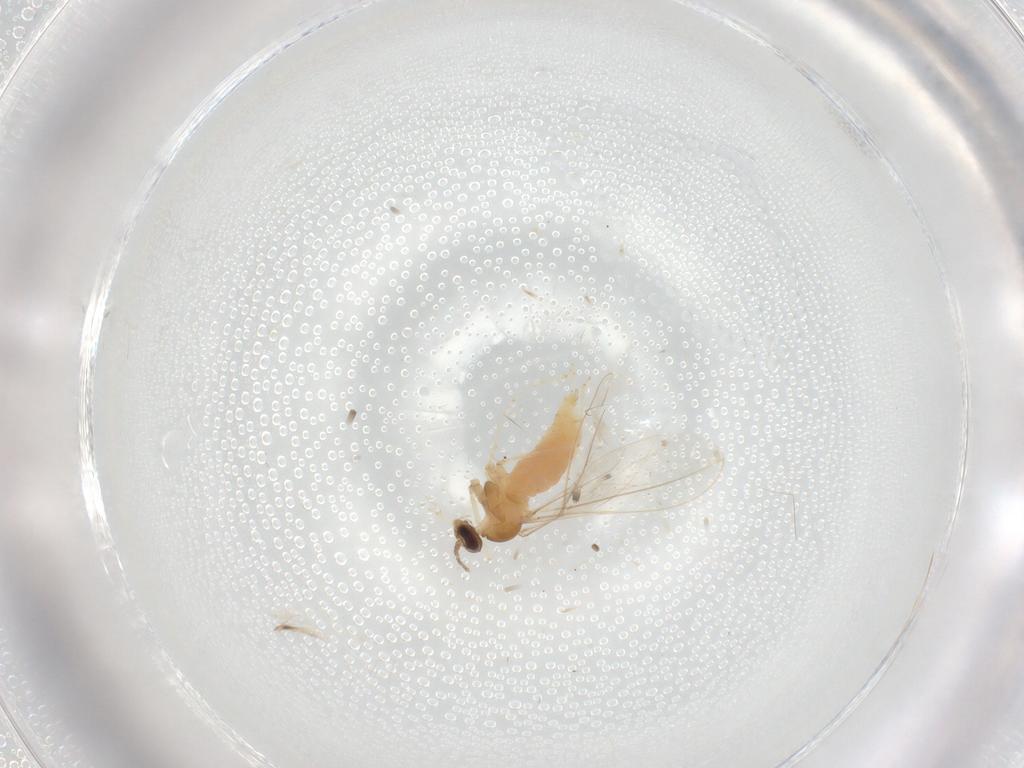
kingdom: Animalia
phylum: Arthropoda
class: Insecta
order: Diptera
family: Cecidomyiidae
